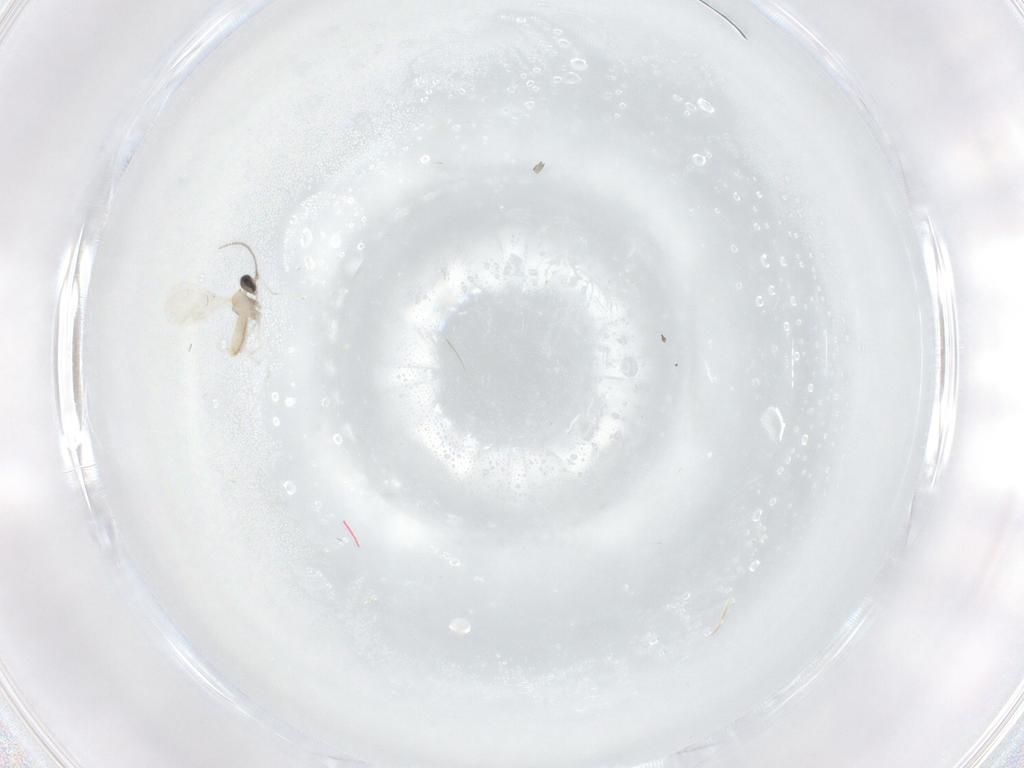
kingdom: Animalia
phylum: Arthropoda
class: Insecta
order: Diptera
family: Cecidomyiidae
